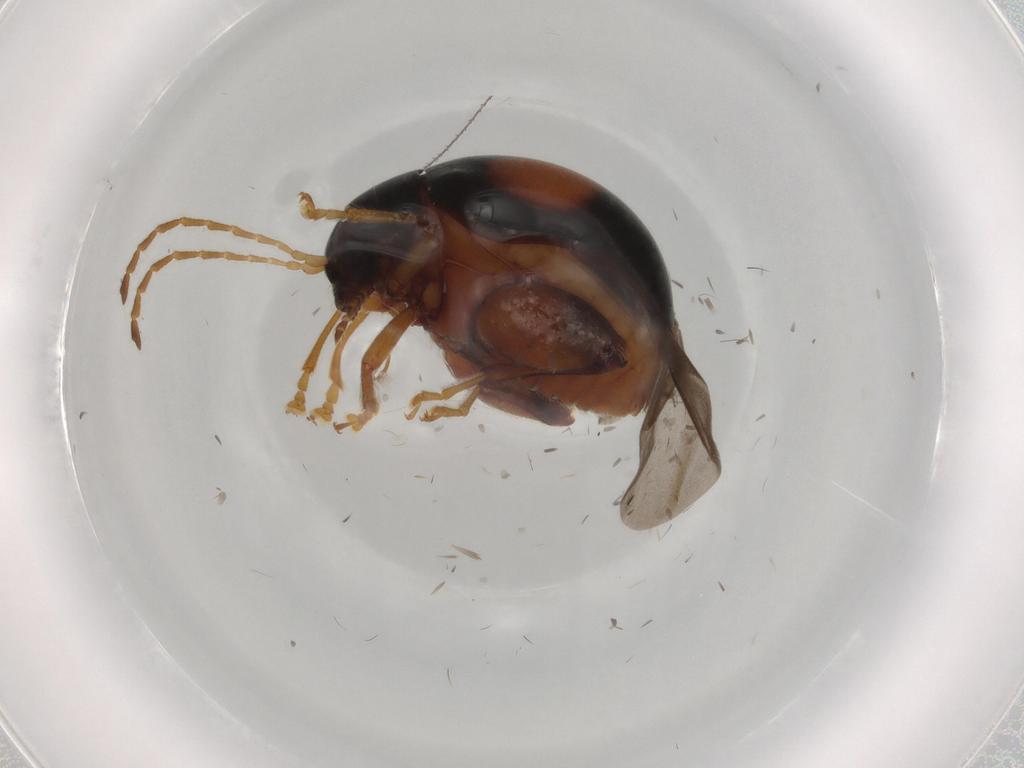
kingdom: Animalia
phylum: Arthropoda
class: Insecta
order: Coleoptera
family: Chrysomelidae
